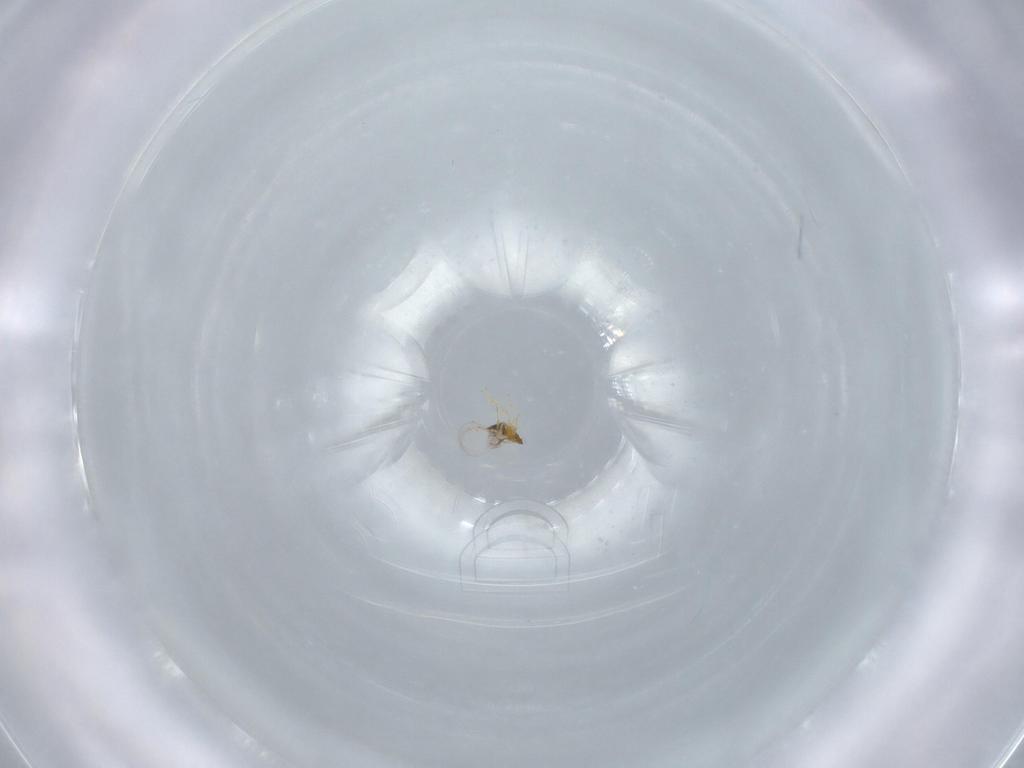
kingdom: Animalia
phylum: Arthropoda
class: Insecta
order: Hymenoptera
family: Trichogrammatidae
